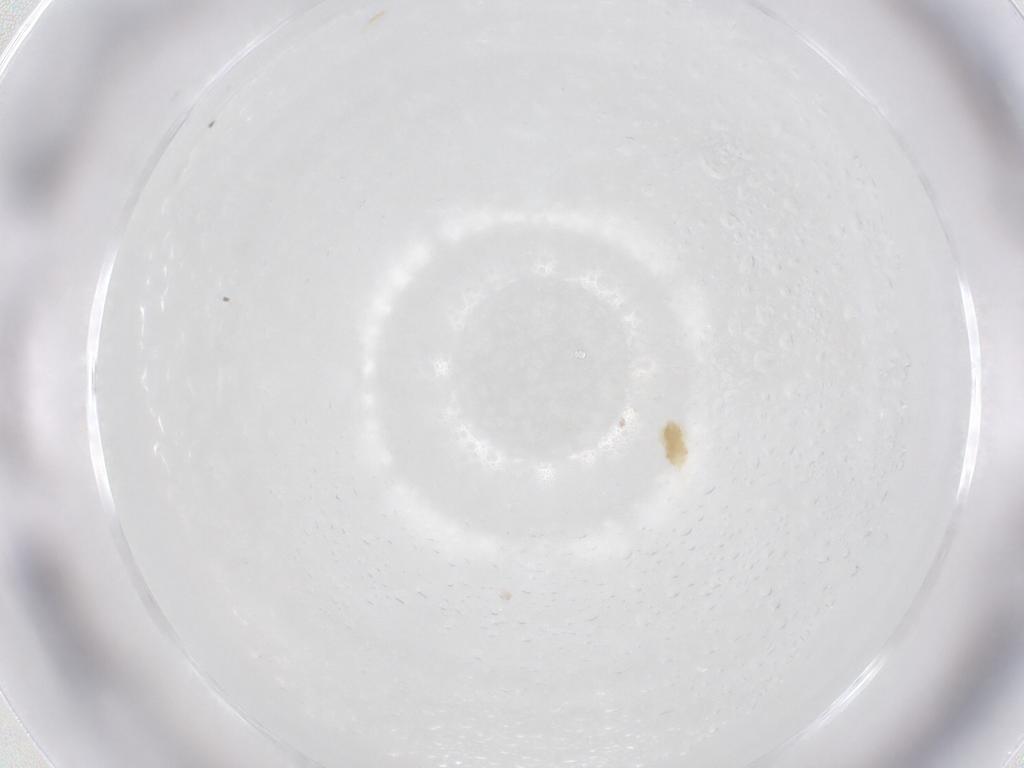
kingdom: Animalia
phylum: Arthropoda
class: Arachnida
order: Trombidiformes
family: Eupodidae
